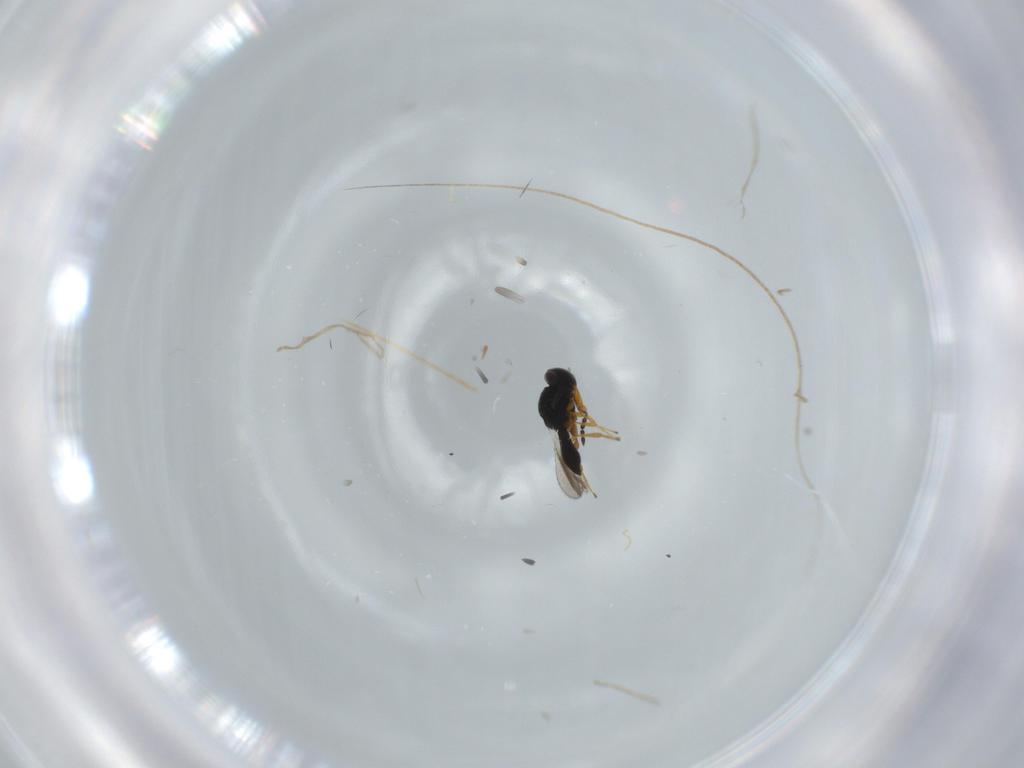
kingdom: Animalia
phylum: Arthropoda
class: Insecta
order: Hymenoptera
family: Platygastridae
